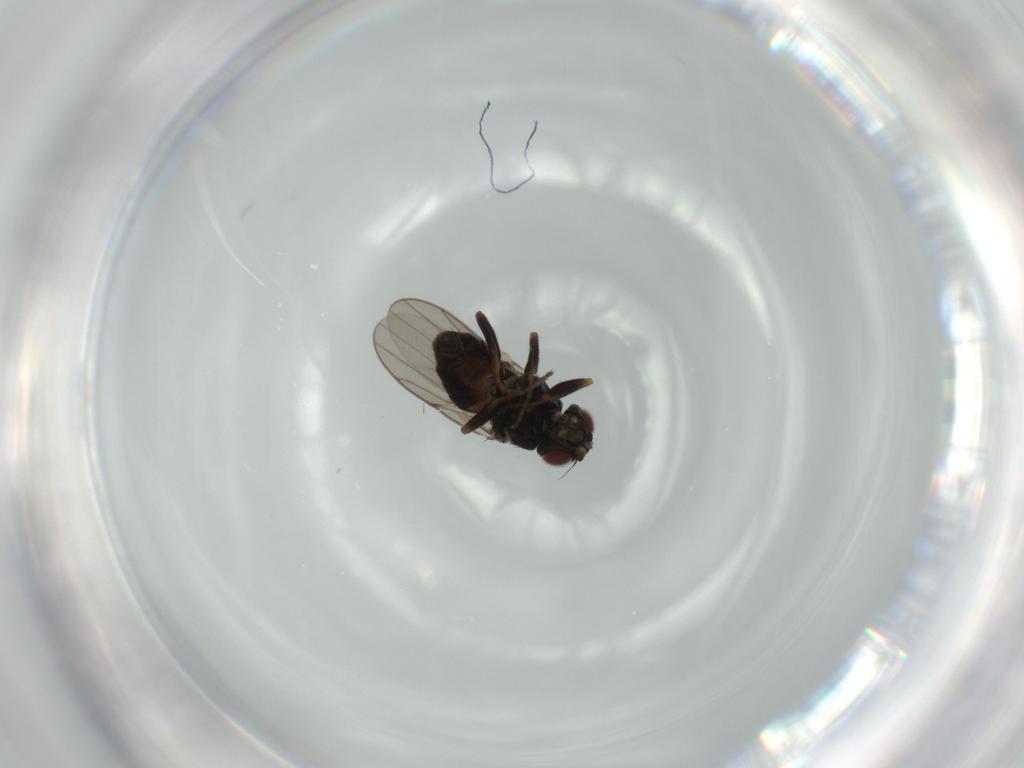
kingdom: Animalia
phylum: Arthropoda
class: Insecta
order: Diptera
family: Chloropidae
